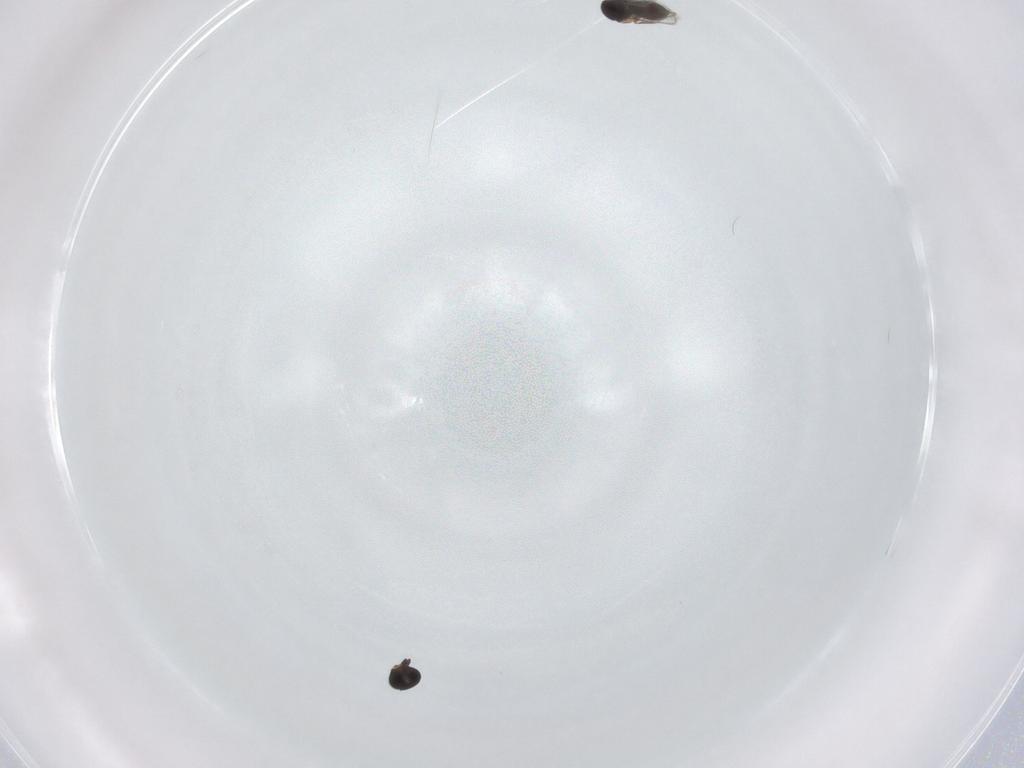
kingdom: Animalia
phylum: Arthropoda
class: Insecta
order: Hymenoptera
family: Scelionidae
